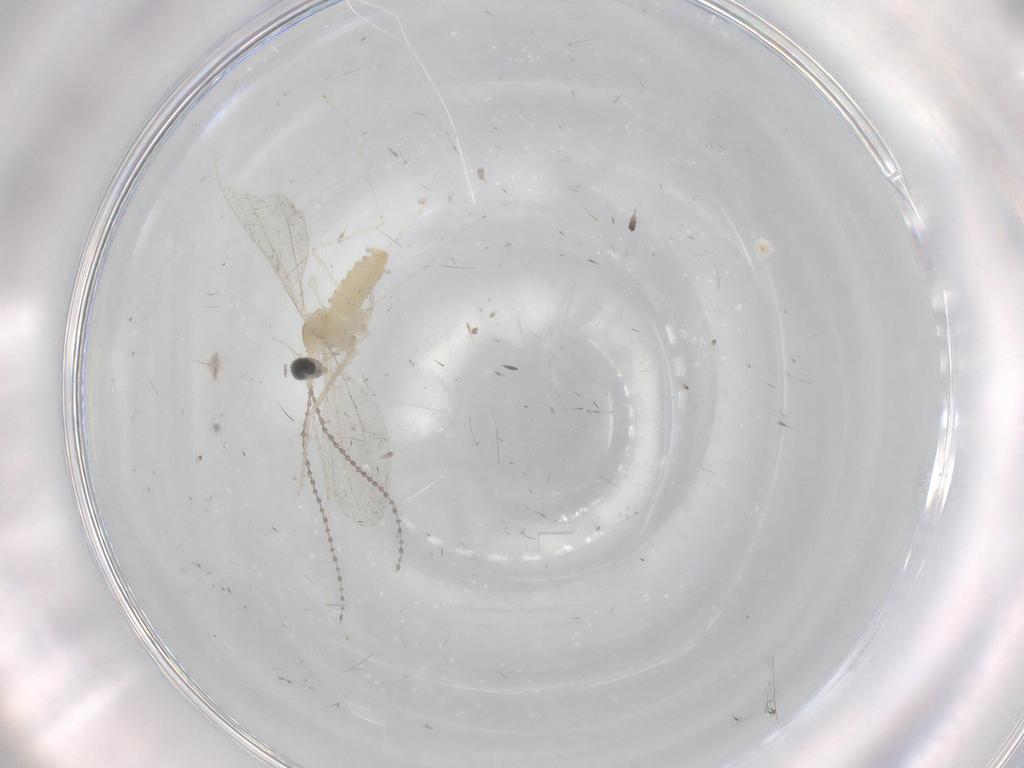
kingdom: Animalia
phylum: Arthropoda
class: Insecta
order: Diptera
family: Cecidomyiidae
